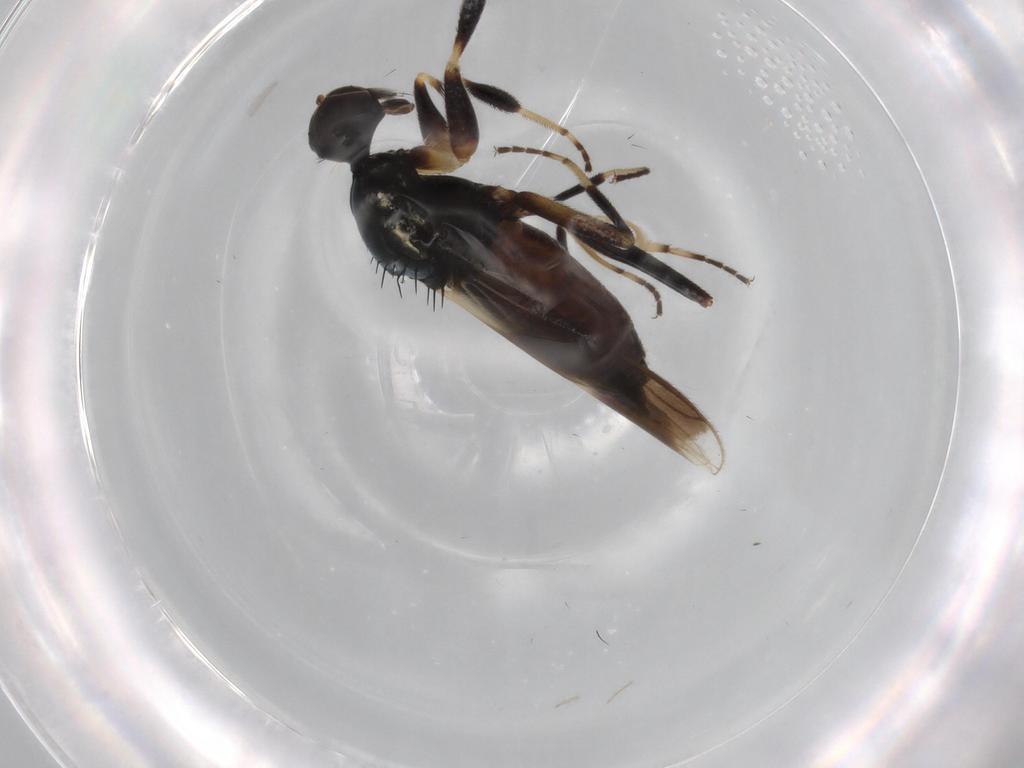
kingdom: Animalia
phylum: Arthropoda
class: Insecta
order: Diptera
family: Hybotidae
